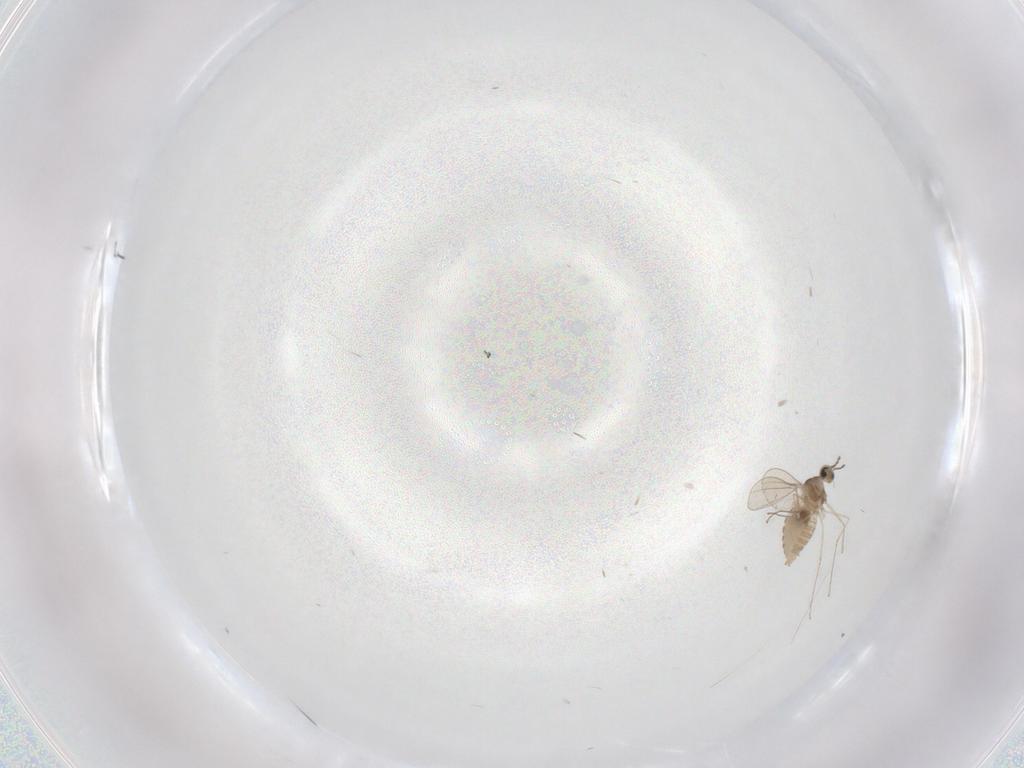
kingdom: Animalia
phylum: Arthropoda
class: Insecta
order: Diptera
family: Cecidomyiidae
